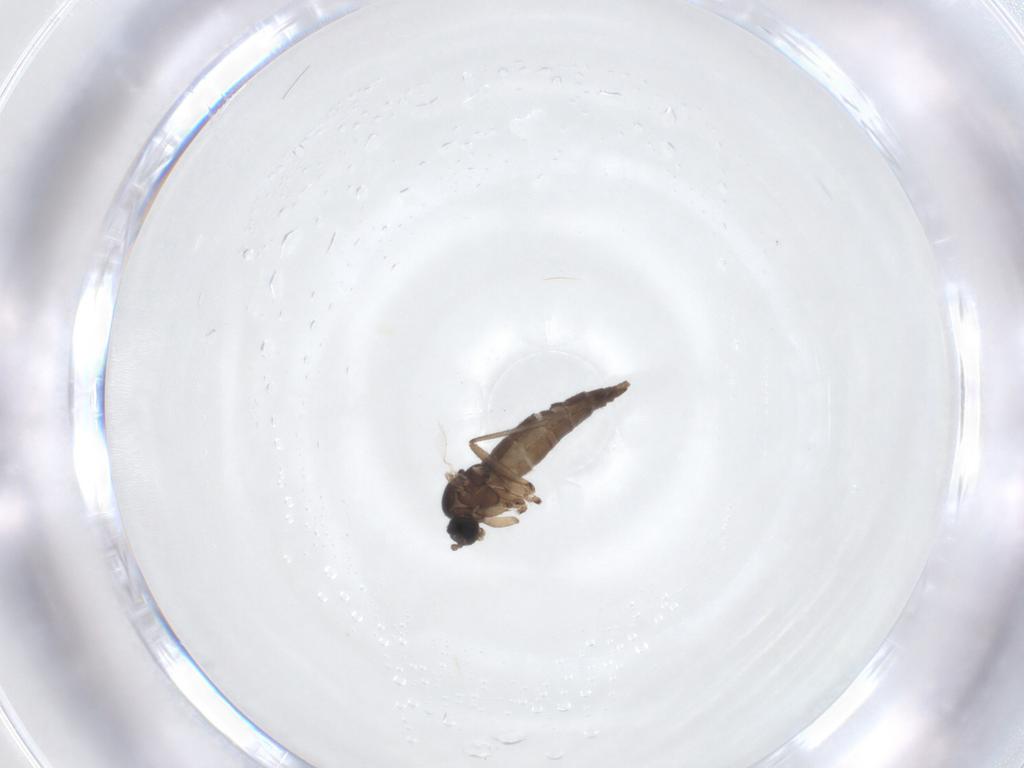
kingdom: Animalia
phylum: Arthropoda
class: Insecta
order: Diptera
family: Sciaridae
